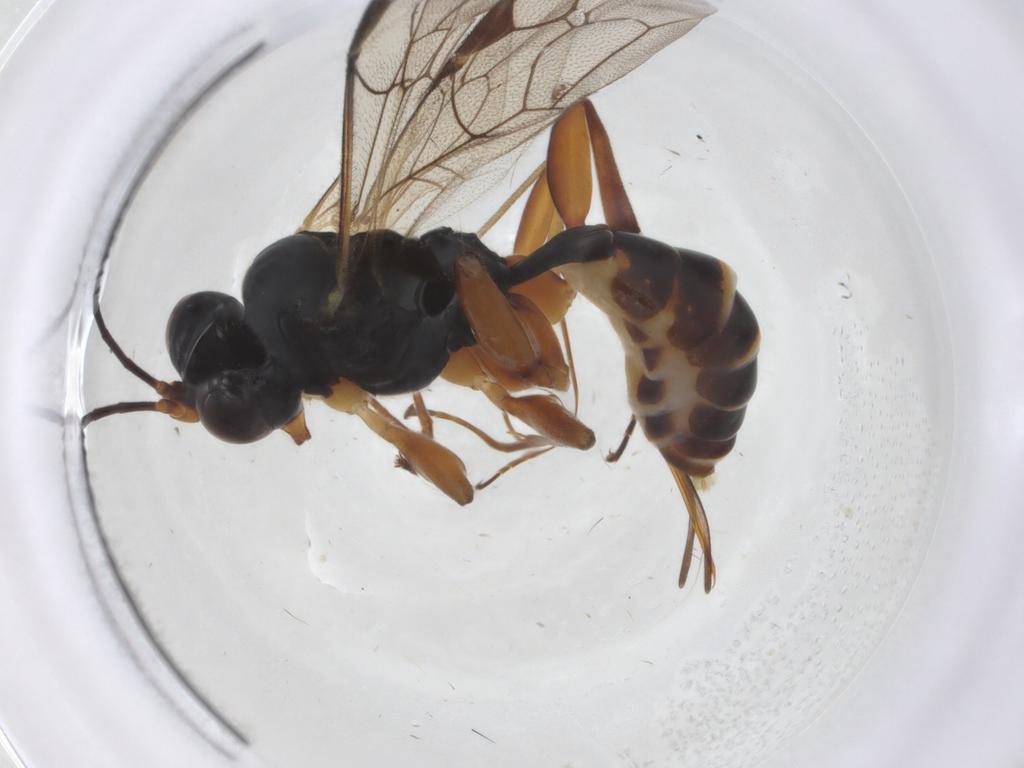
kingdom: Animalia
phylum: Arthropoda
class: Insecta
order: Hymenoptera
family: Ichneumonidae
